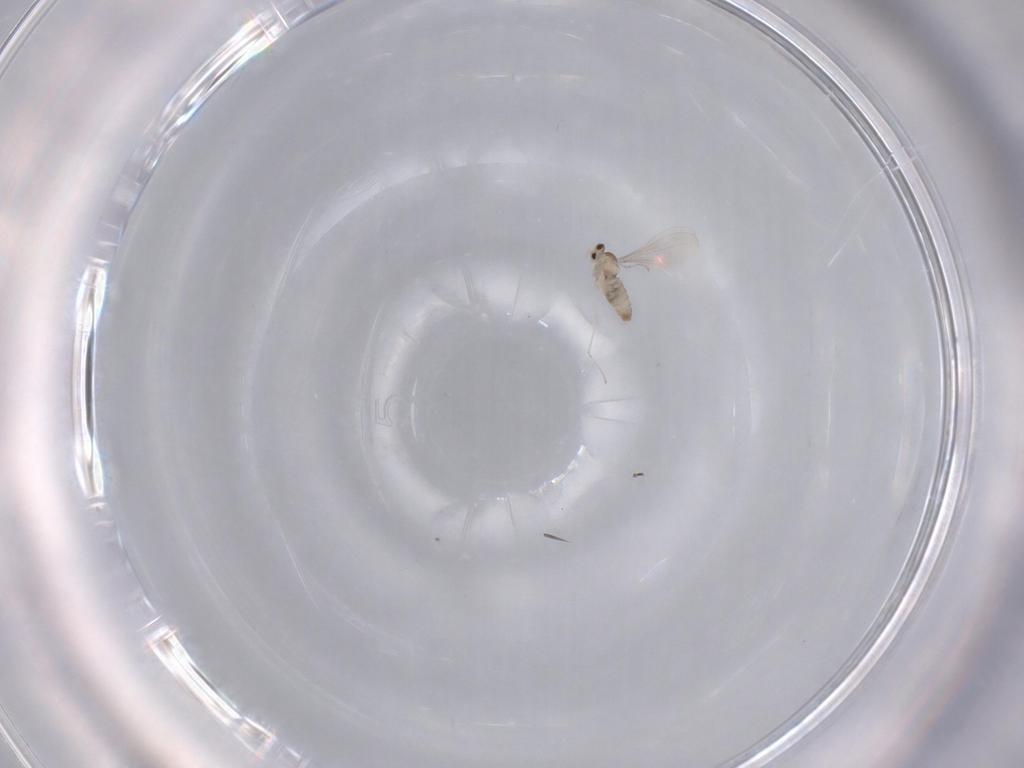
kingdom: Animalia
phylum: Arthropoda
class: Insecta
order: Diptera
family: Cecidomyiidae
